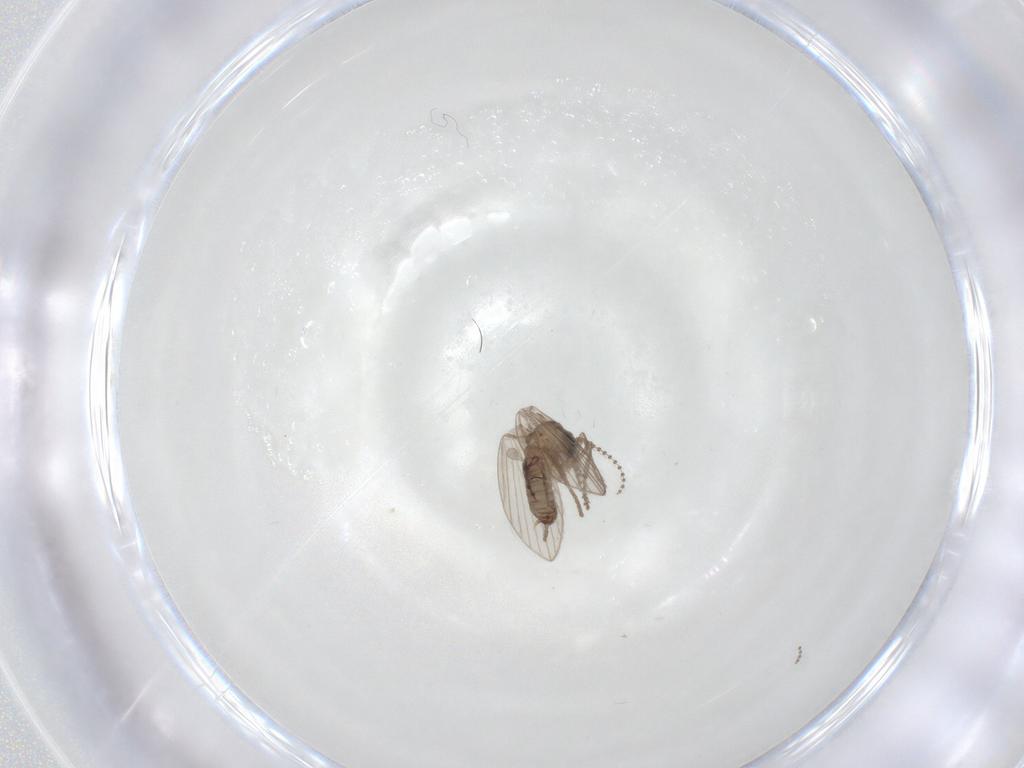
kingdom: Animalia
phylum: Arthropoda
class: Insecta
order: Diptera
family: Psychodidae
